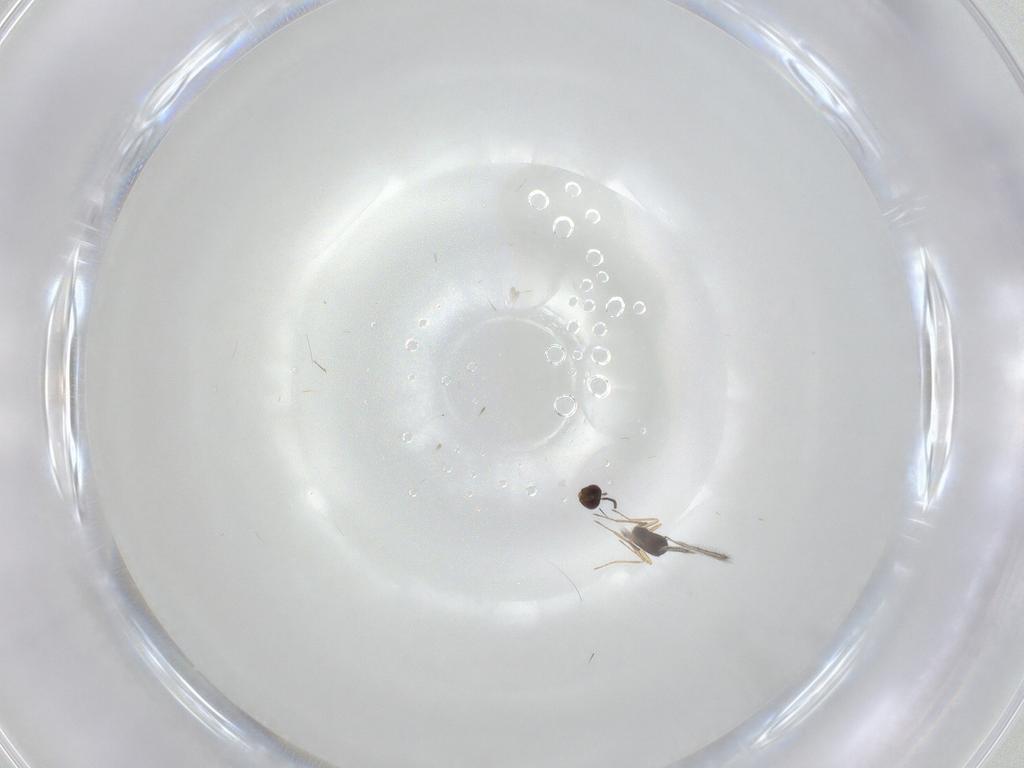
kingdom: Animalia
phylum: Arthropoda
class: Insecta
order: Hymenoptera
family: Mymaridae
